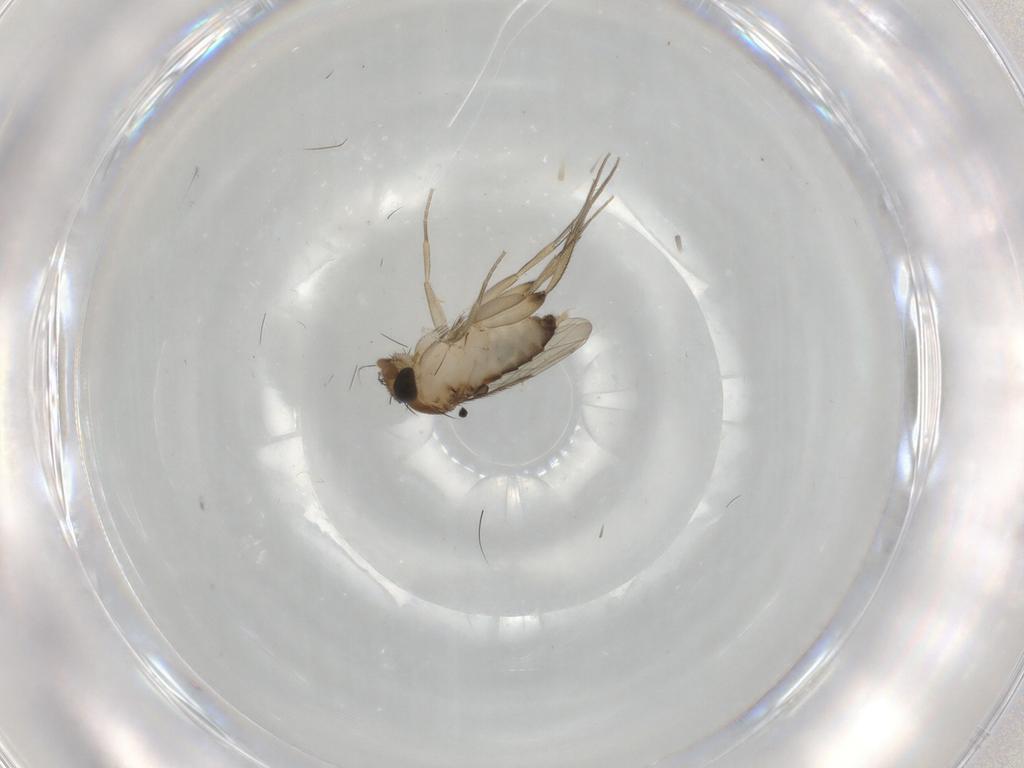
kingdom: Animalia
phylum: Arthropoda
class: Insecta
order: Diptera
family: Phoridae
